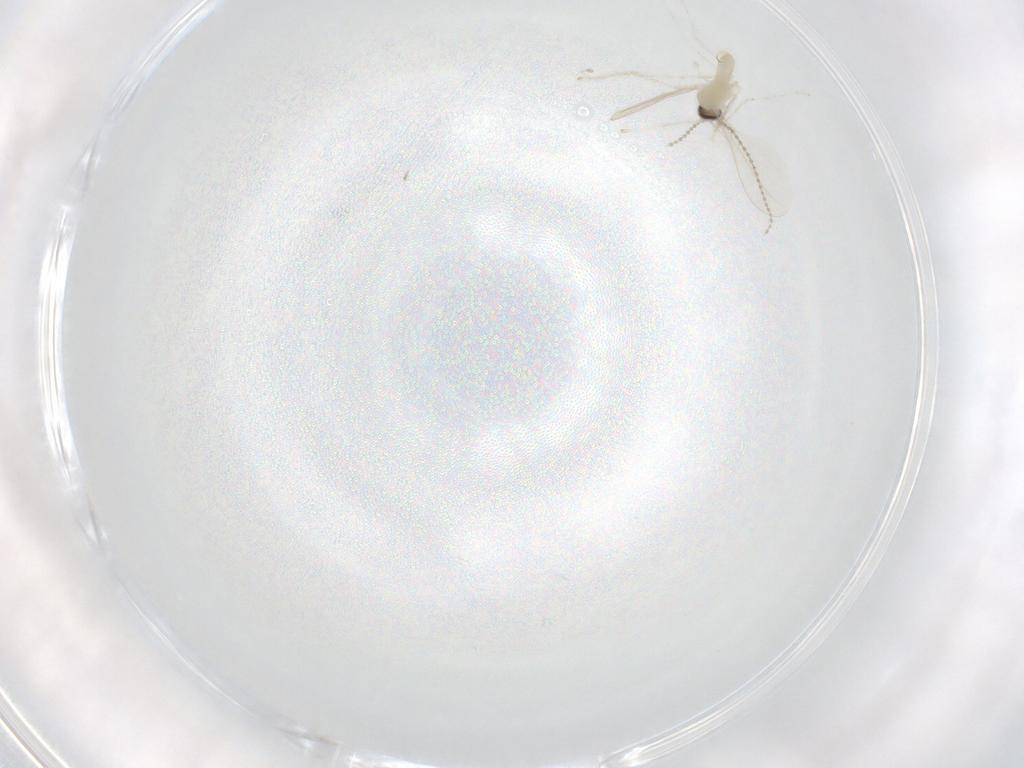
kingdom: Animalia
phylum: Arthropoda
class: Insecta
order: Diptera
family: Cecidomyiidae
